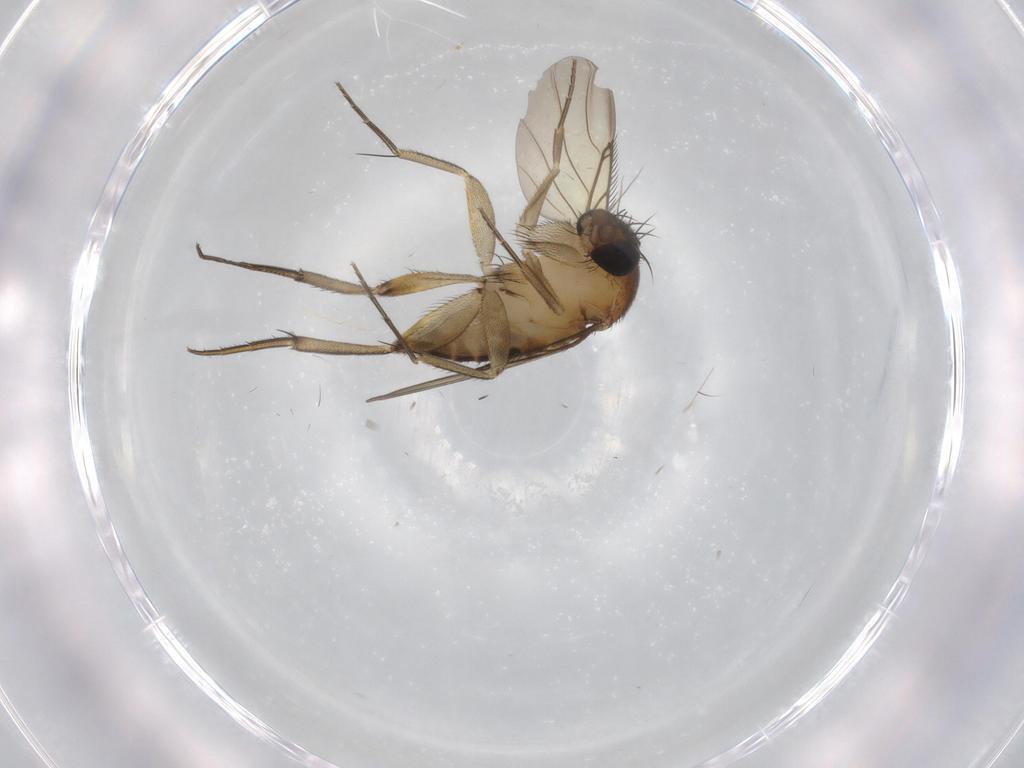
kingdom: Animalia
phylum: Arthropoda
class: Insecta
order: Diptera
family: Phoridae
